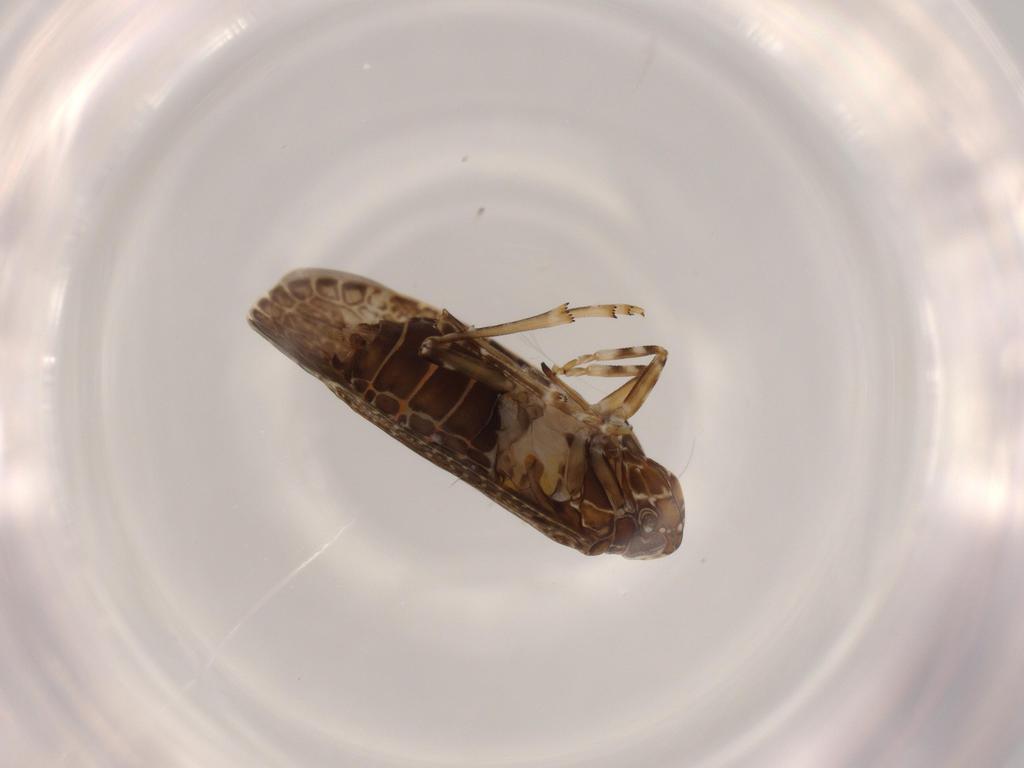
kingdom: Animalia
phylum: Arthropoda
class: Insecta
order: Hemiptera
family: Achilidae
